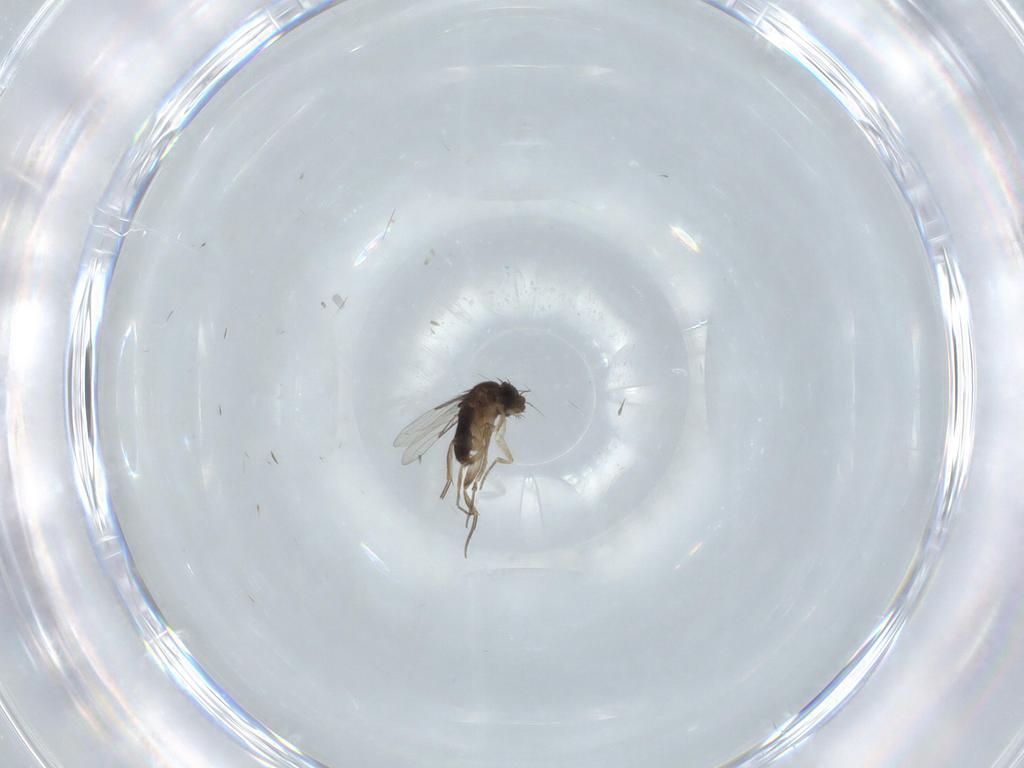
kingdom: Animalia
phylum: Arthropoda
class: Insecta
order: Diptera
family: Phoridae
